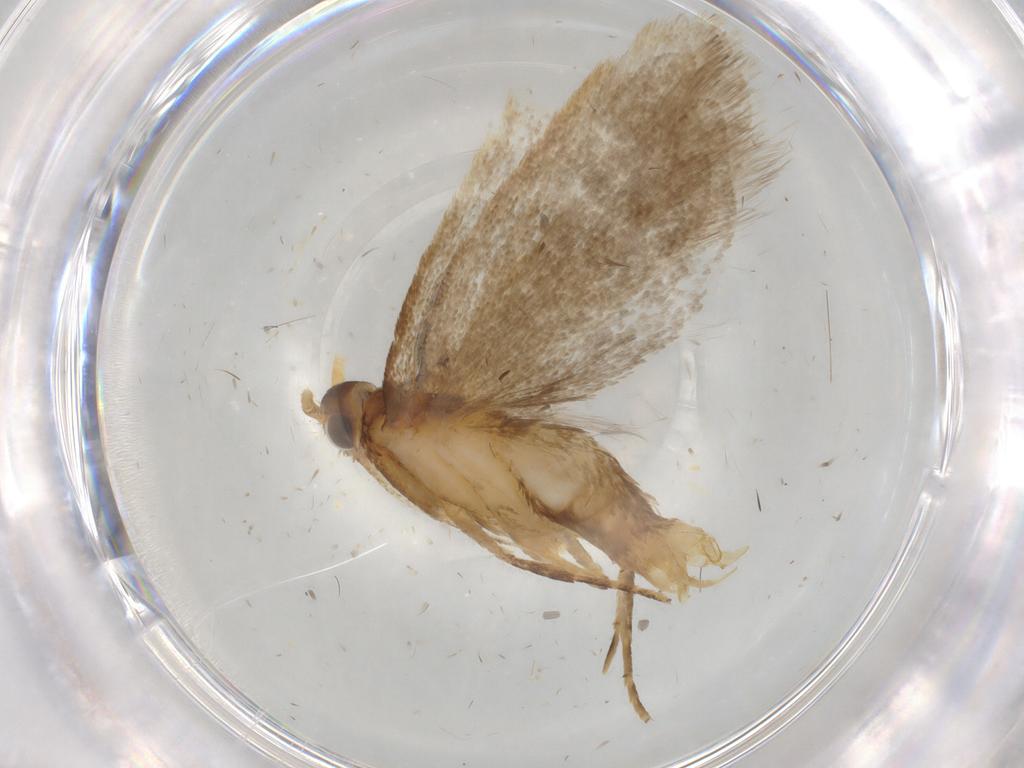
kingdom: Animalia
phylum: Arthropoda
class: Insecta
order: Lepidoptera
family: Lecithoceridae
